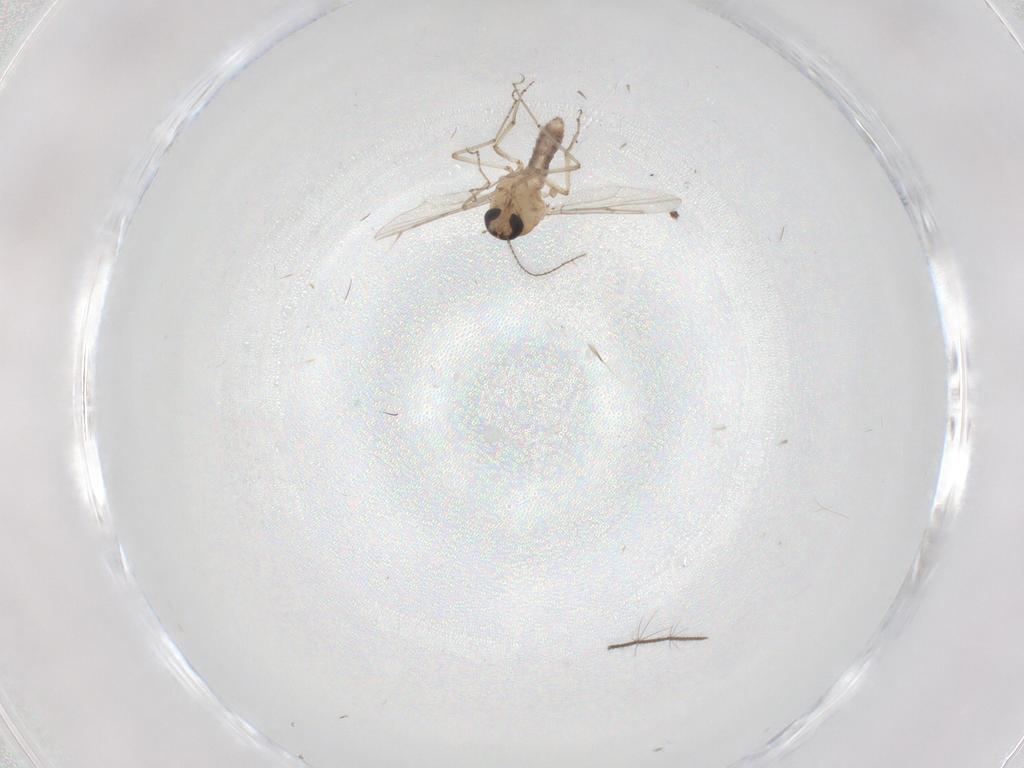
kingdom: Animalia
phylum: Arthropoda
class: Insecta
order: Diptera
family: Ceratopogonidae
